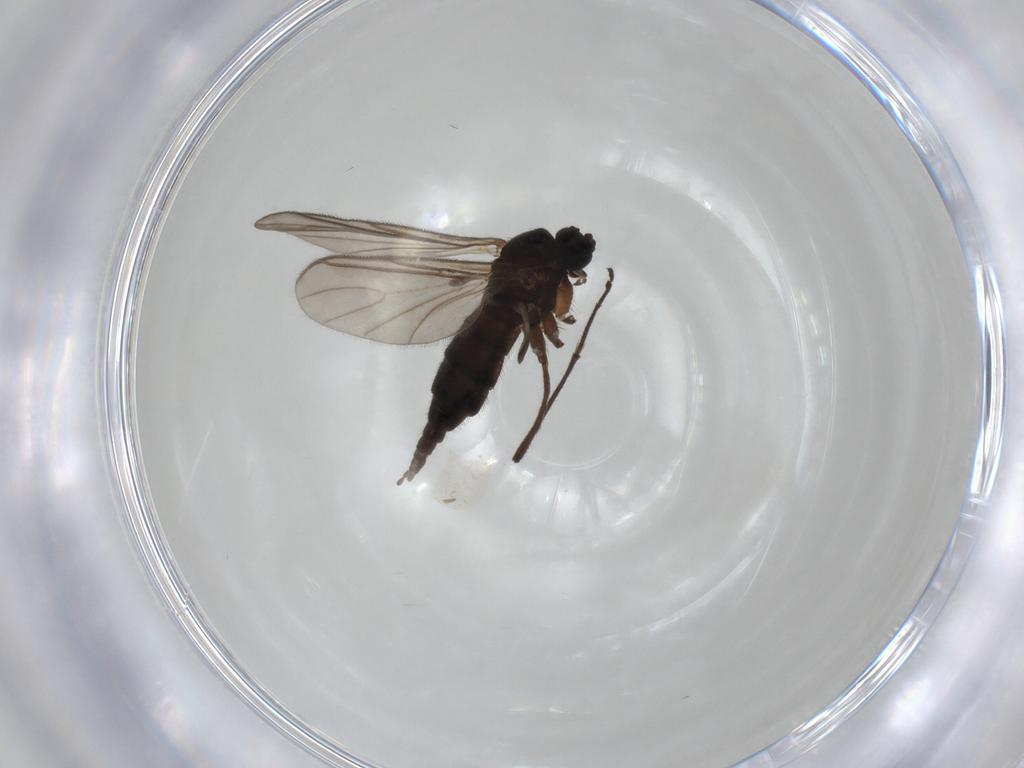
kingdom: Animalia
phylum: Arthropoda
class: Insecta
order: Diptera
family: Sciaridae
